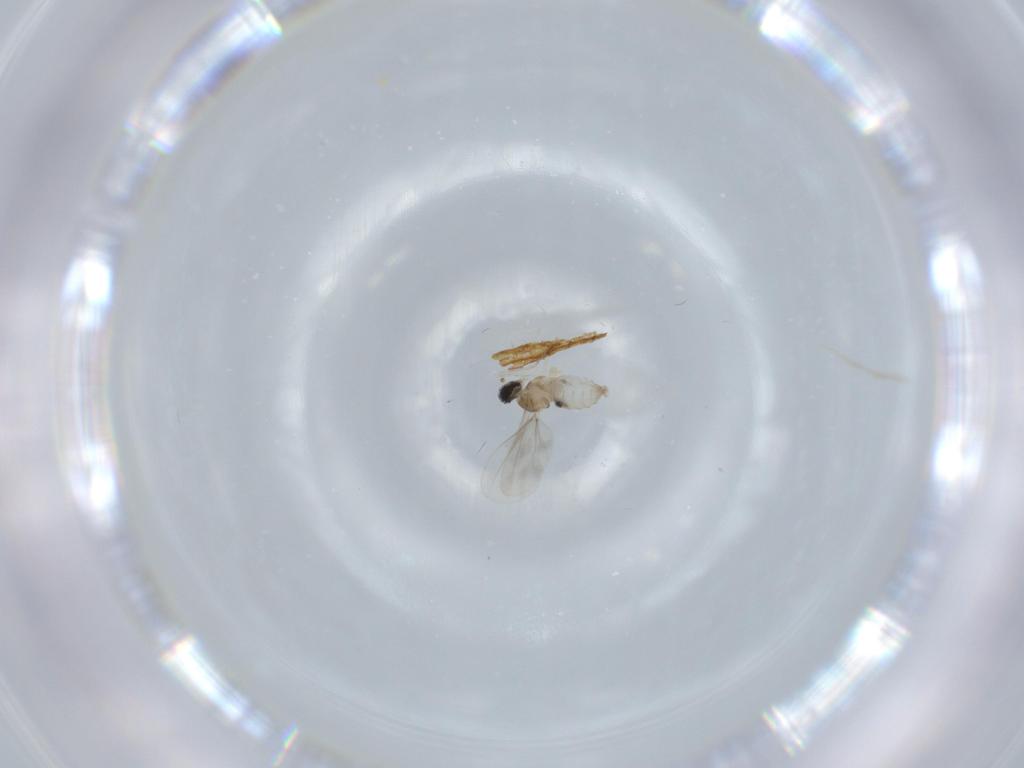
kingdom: Animalia
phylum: Arthropoda
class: Insecta
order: Diptera
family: Cecidomyiidae
